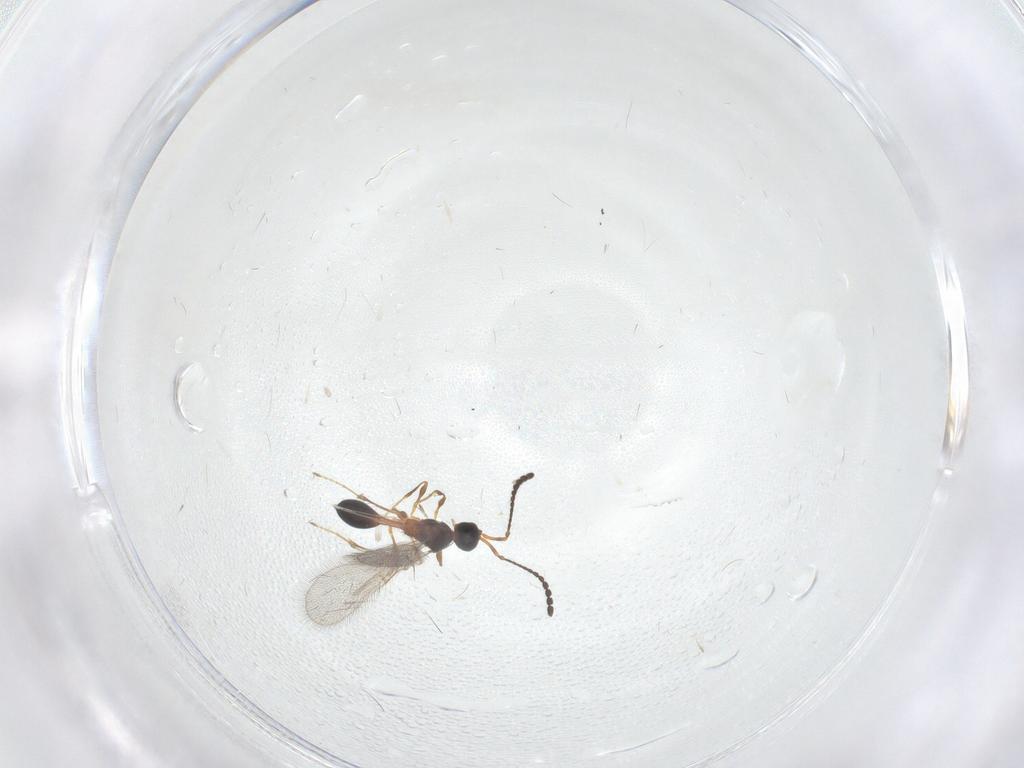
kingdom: Animalia
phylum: Arthropoda
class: Insecta
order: Hymenoptera
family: Diapriidae
